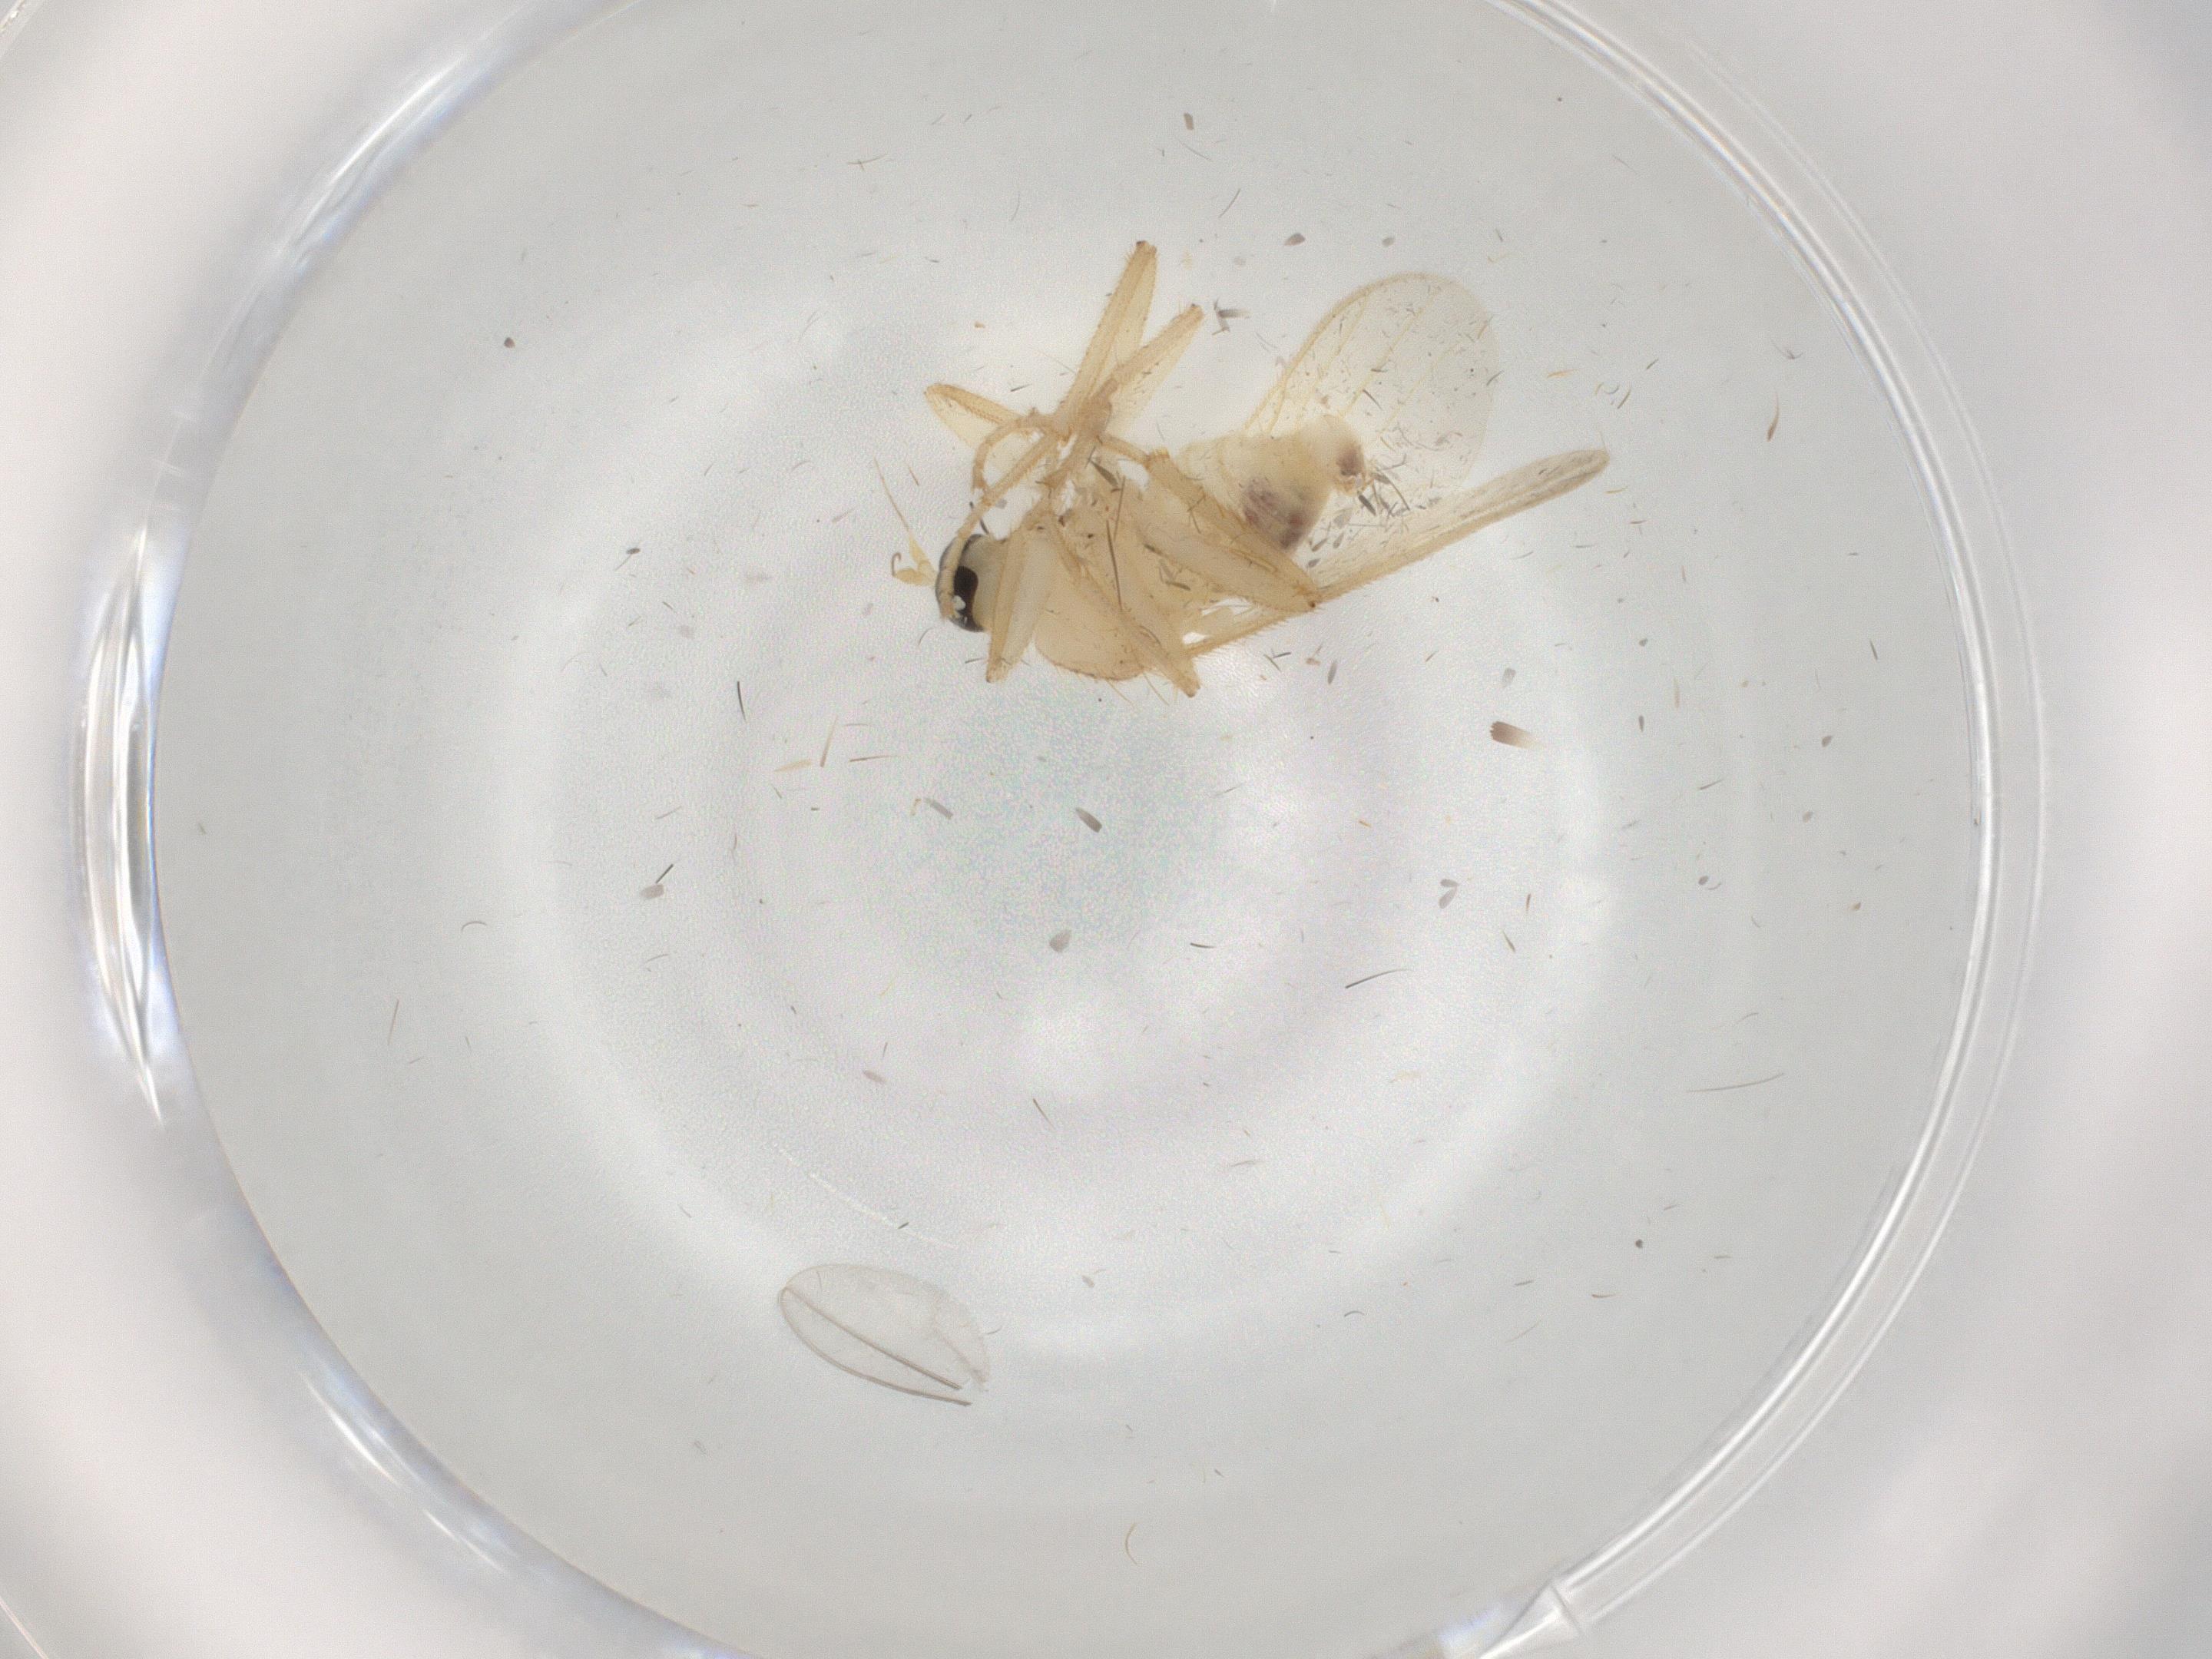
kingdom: Animalia
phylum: Arthropoda
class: Insecta
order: Diptera
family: Hybotidae
